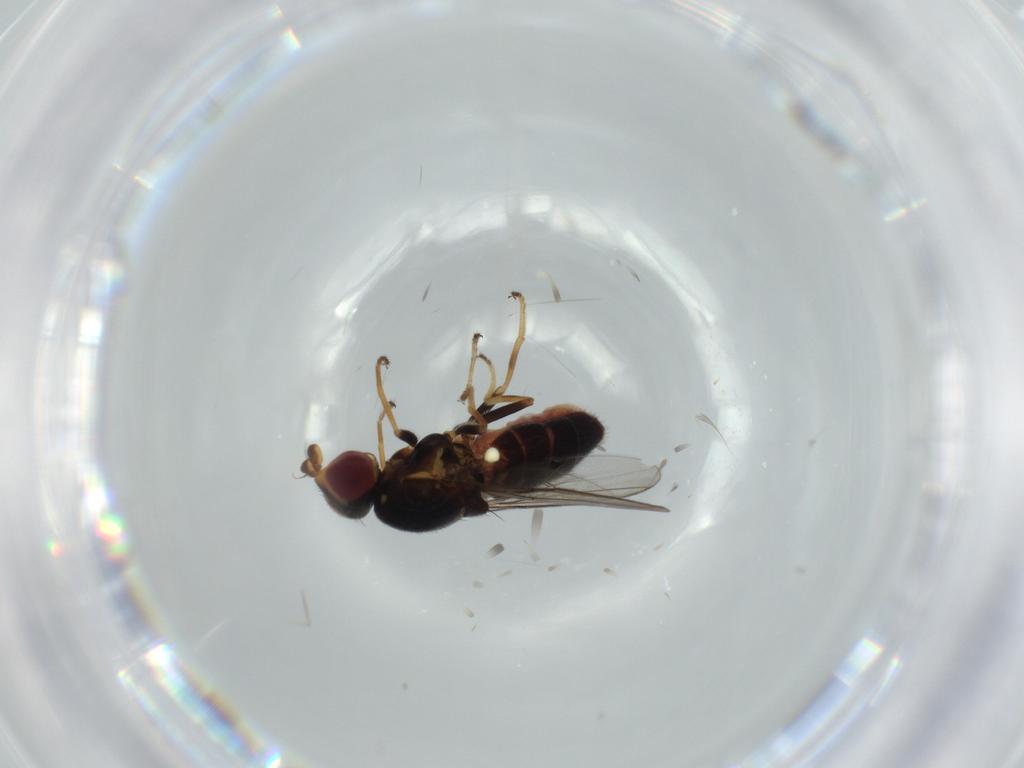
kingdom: Animalia
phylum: Arthropoda
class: Insecta
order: Diptera
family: Chloropidae
